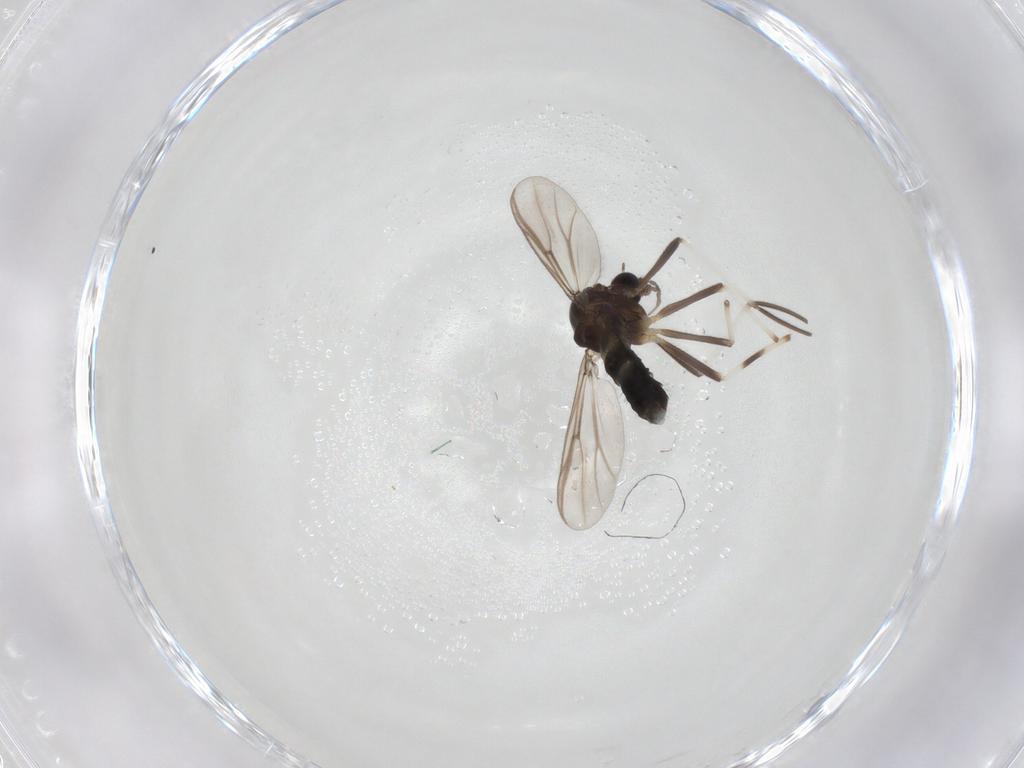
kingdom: Animalia
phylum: Arthropoda
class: Insecta
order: Diptera
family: Chironomidae
